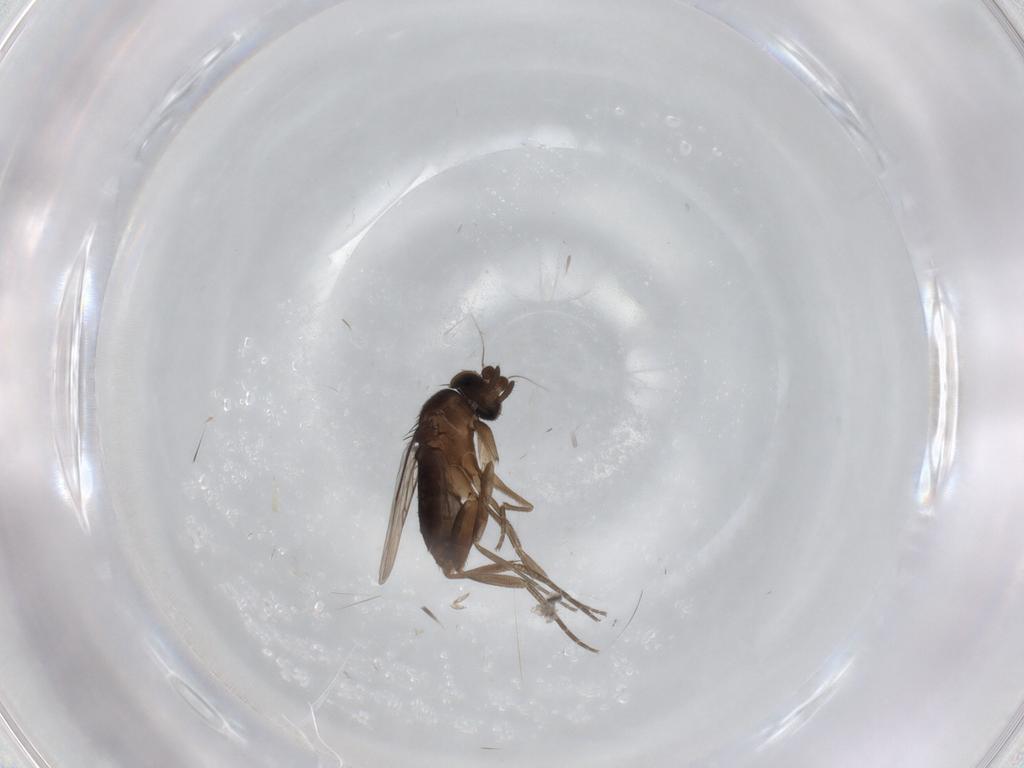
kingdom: Animalia
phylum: Arthropoda
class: Insecta
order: Diptera
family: Phoridae
